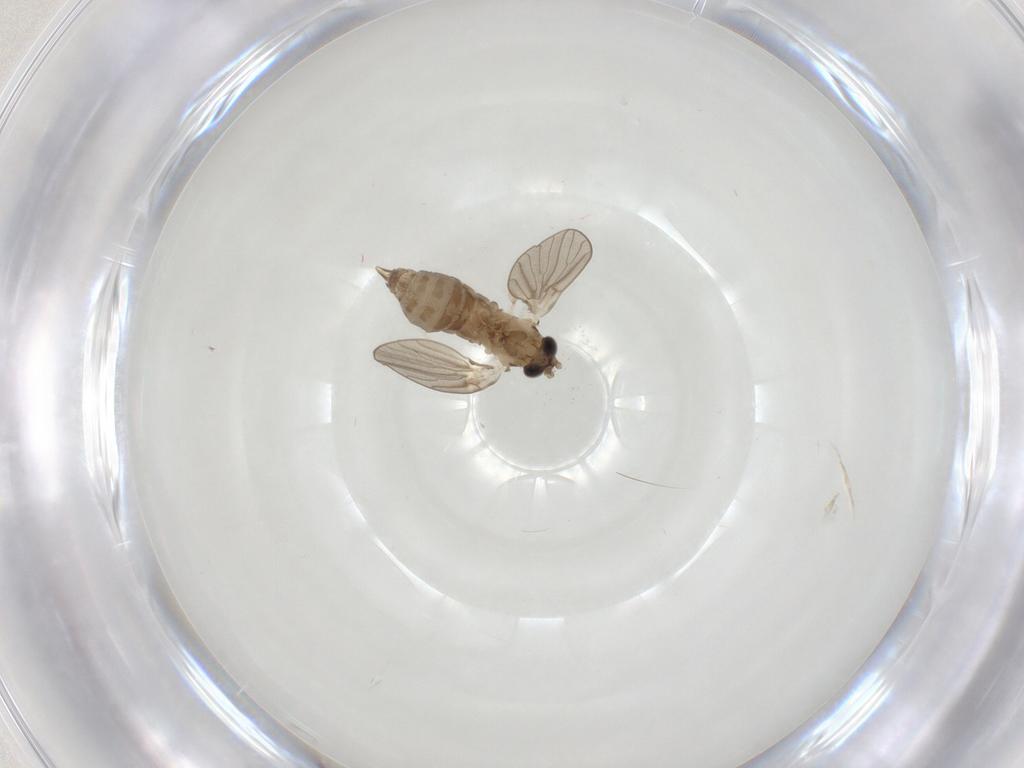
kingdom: Animalia
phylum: Arthropoda
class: Insecta
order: Diptera
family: Psychodidae
